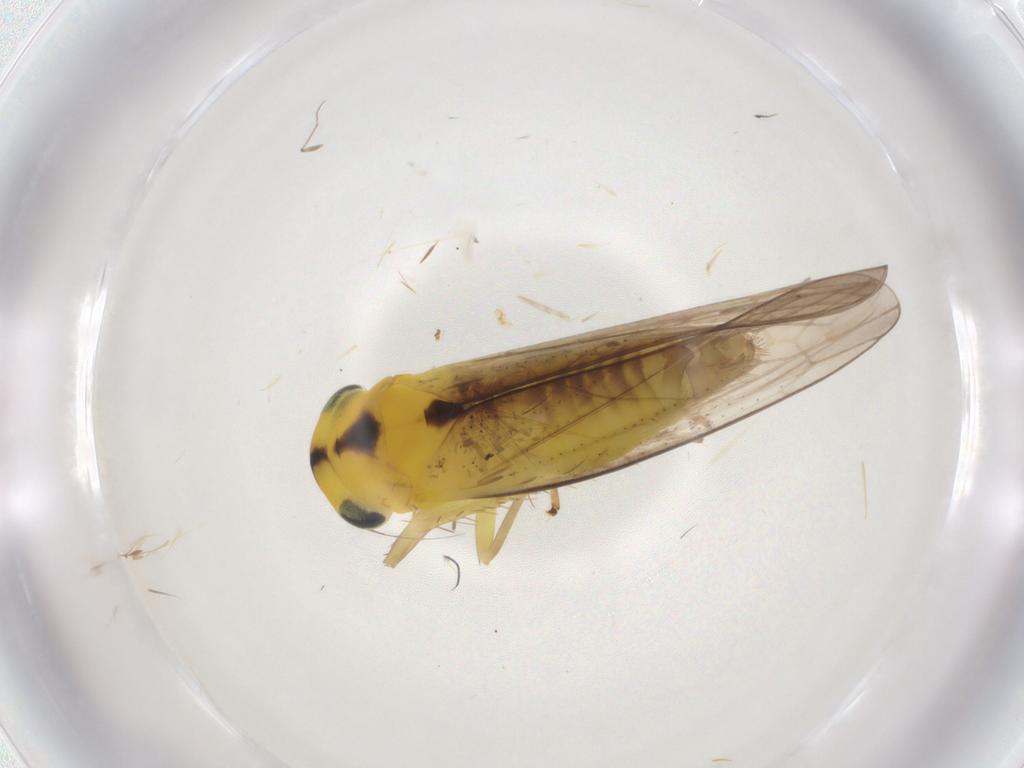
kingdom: Animalia
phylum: Arthropoda
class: Insecta
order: Hemiptera
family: Cicadellidae
